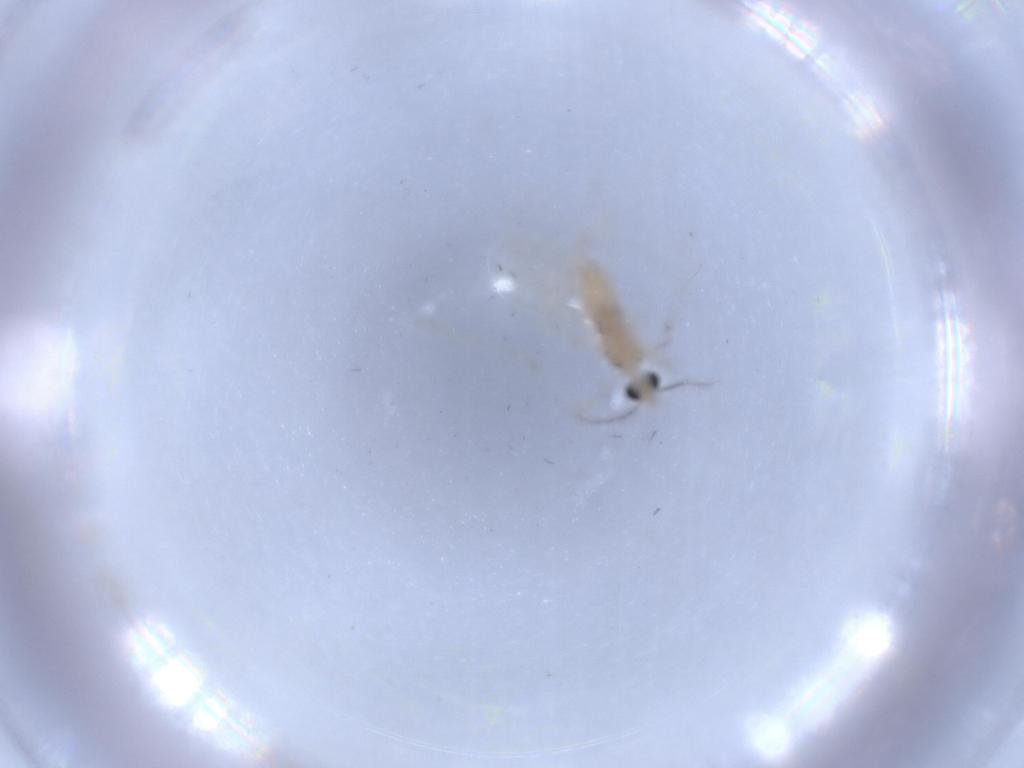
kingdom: Animalia
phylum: Arthropoda
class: Insecta
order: Diptera
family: Cecidomyiidae
